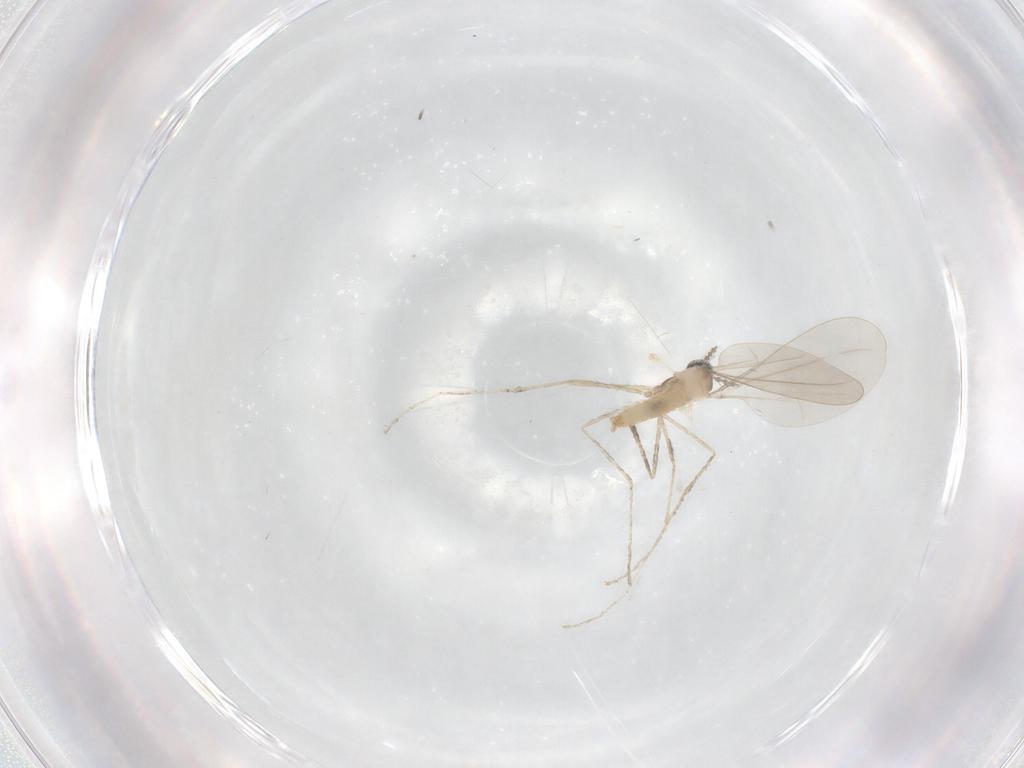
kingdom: Animalia
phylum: Arthropoda
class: Insecta
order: Diptera
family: Cecidomyiidae
